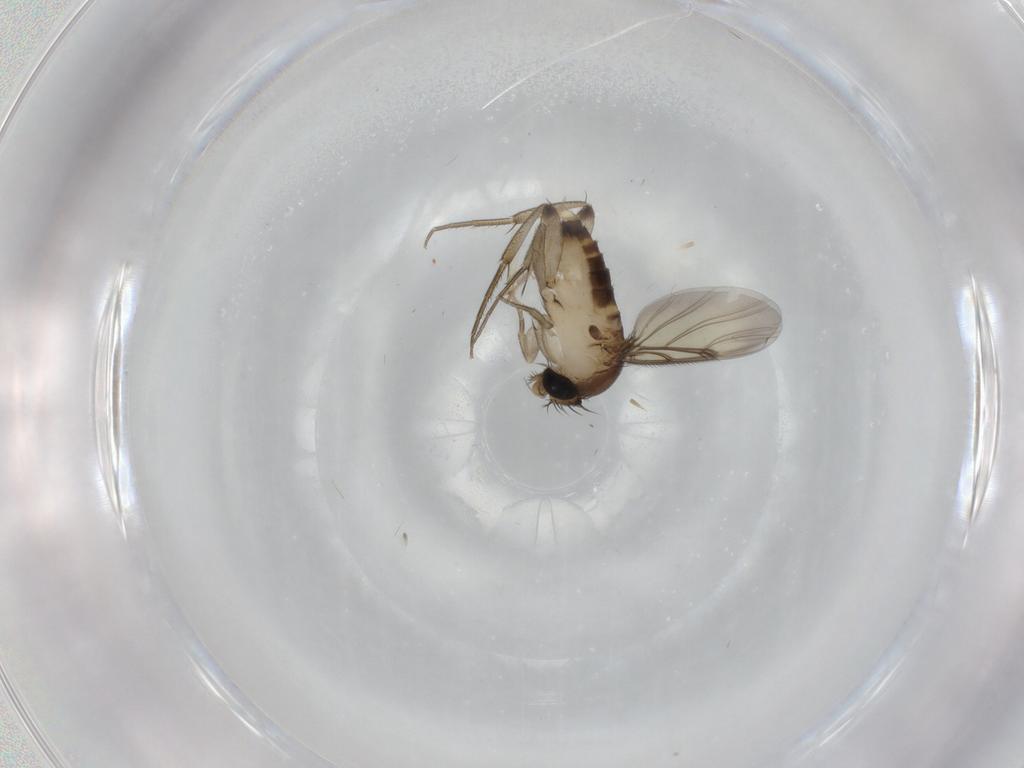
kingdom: Animalia
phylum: Arthropoda
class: Insecta
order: Diptera
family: Phoridae
